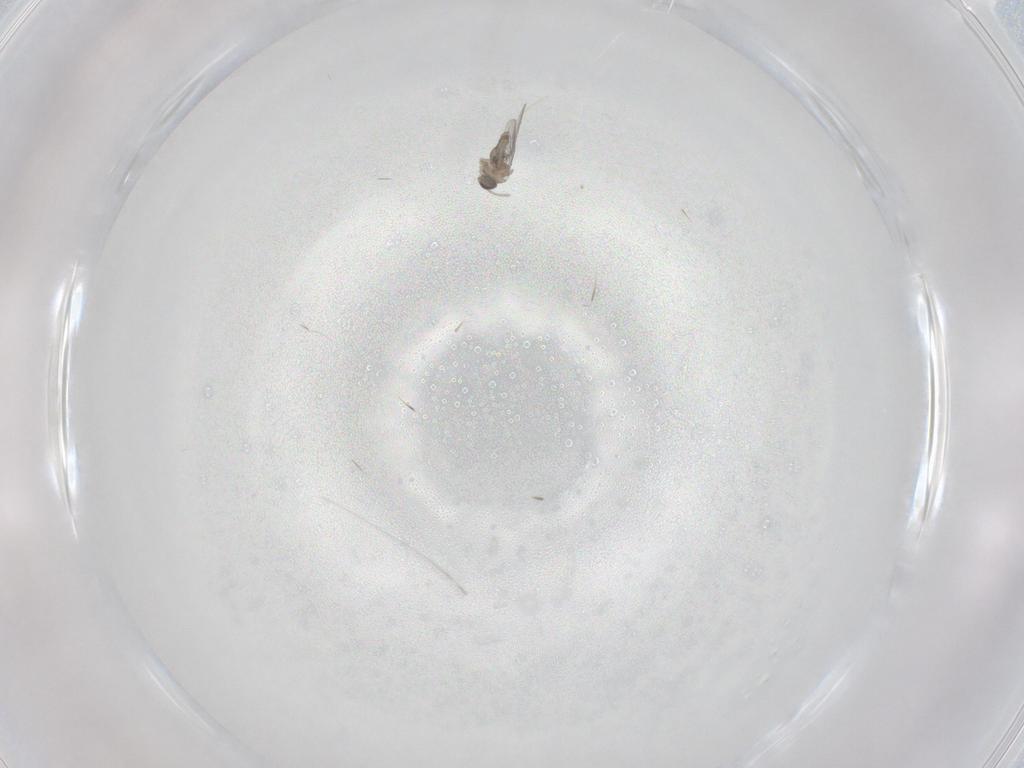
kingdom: Animalia
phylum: Arthropoda
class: Insecta
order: Diptera
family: Cecidomyiidae
